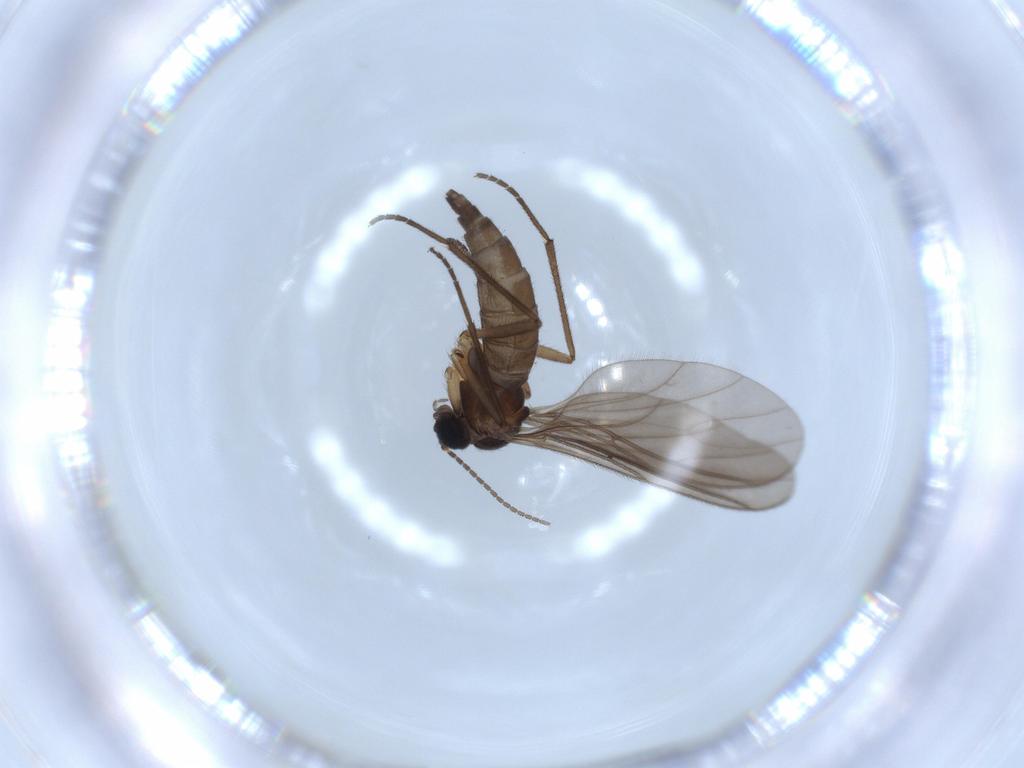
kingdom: Animalia
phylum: Arthropoda
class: Insecta
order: Diptera
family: Sciaridae
